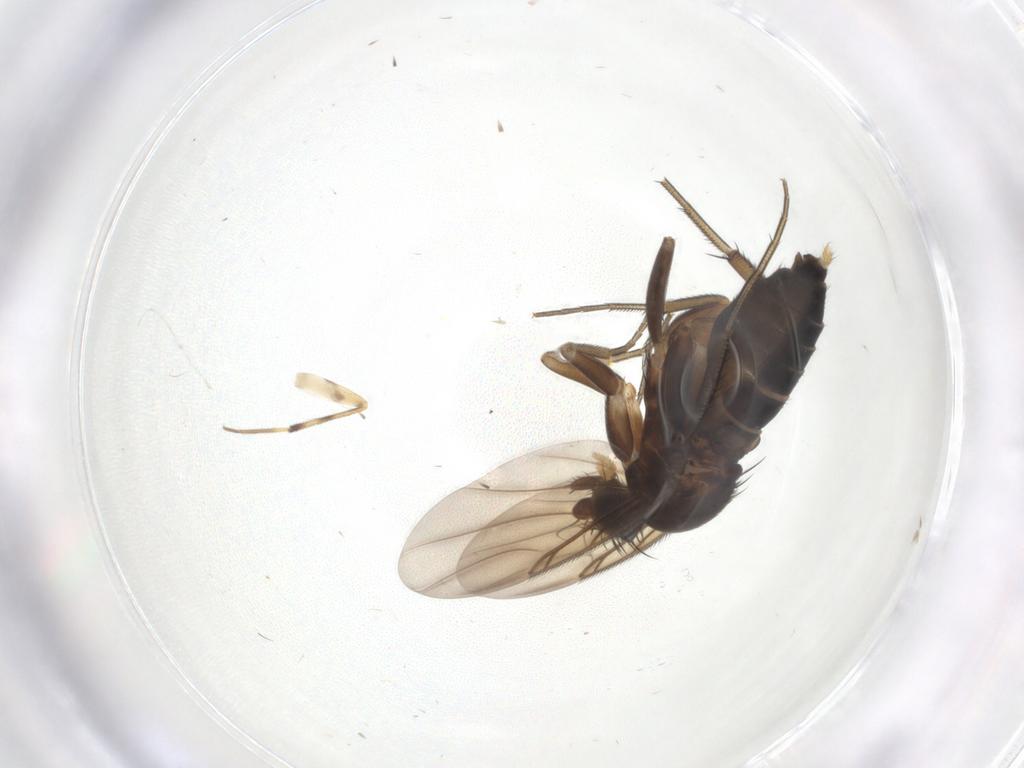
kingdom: Animalia
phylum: Arthropoda
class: Insecta
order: Diptera
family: Phoridae
